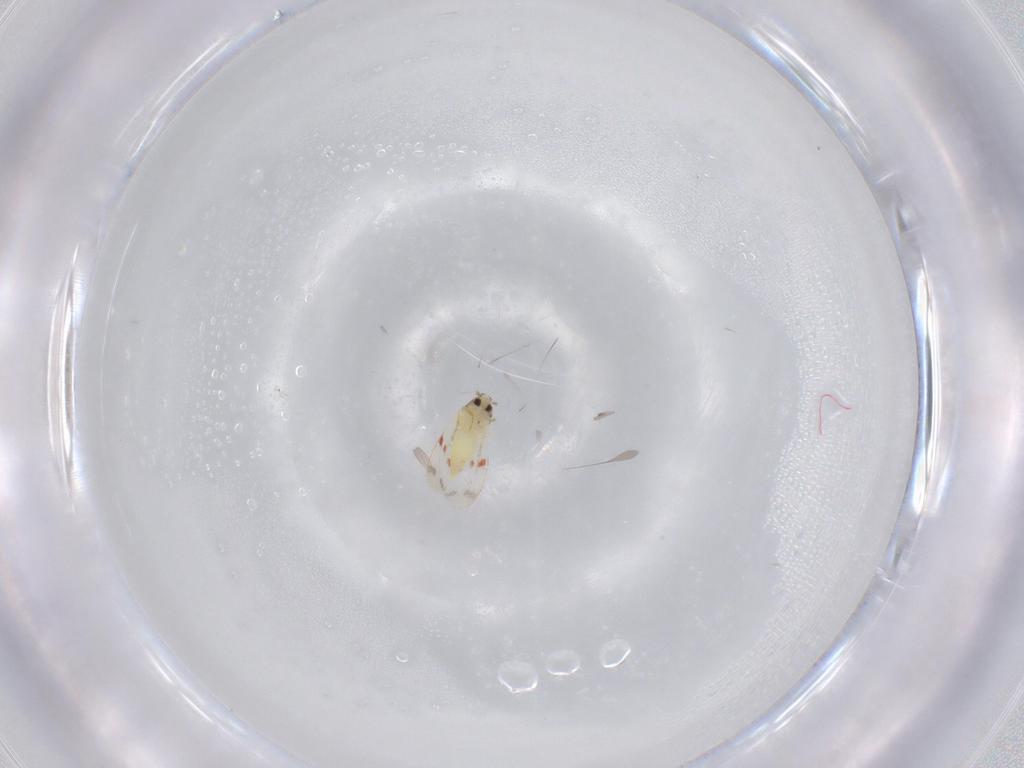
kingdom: Animalia
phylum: Arthropoda
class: Insecta
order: Hemiptera
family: Aleyrodidae
